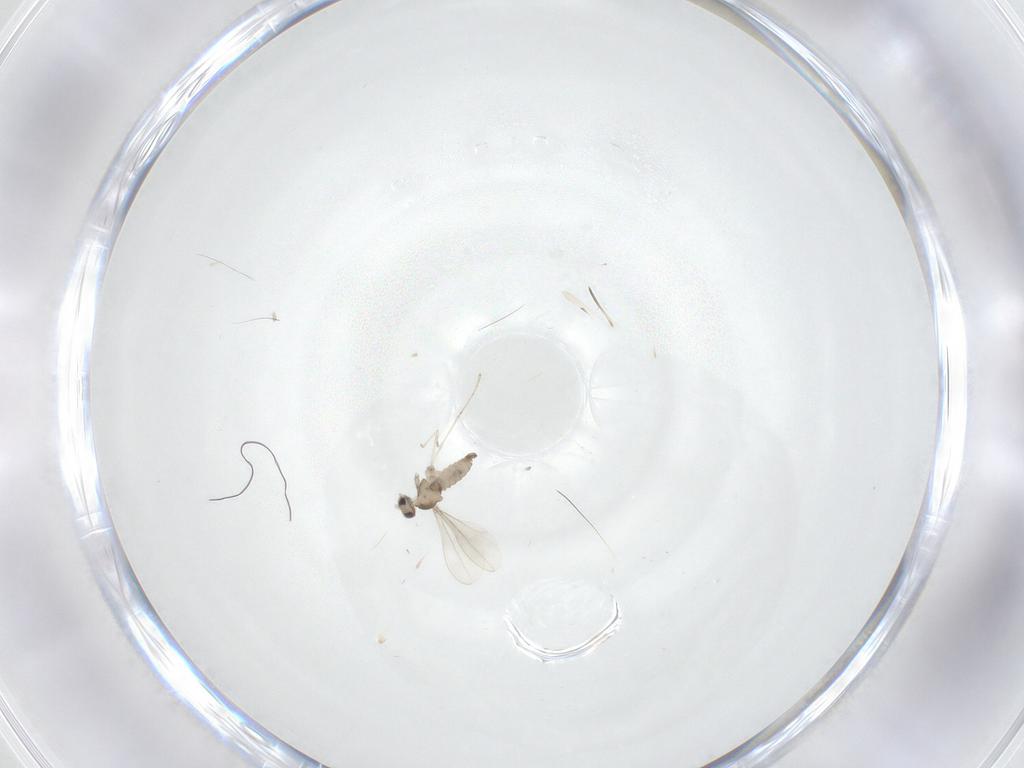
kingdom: Animalia
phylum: Arthropoda
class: Insecta
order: Diptera
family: Cecidomyiidae
